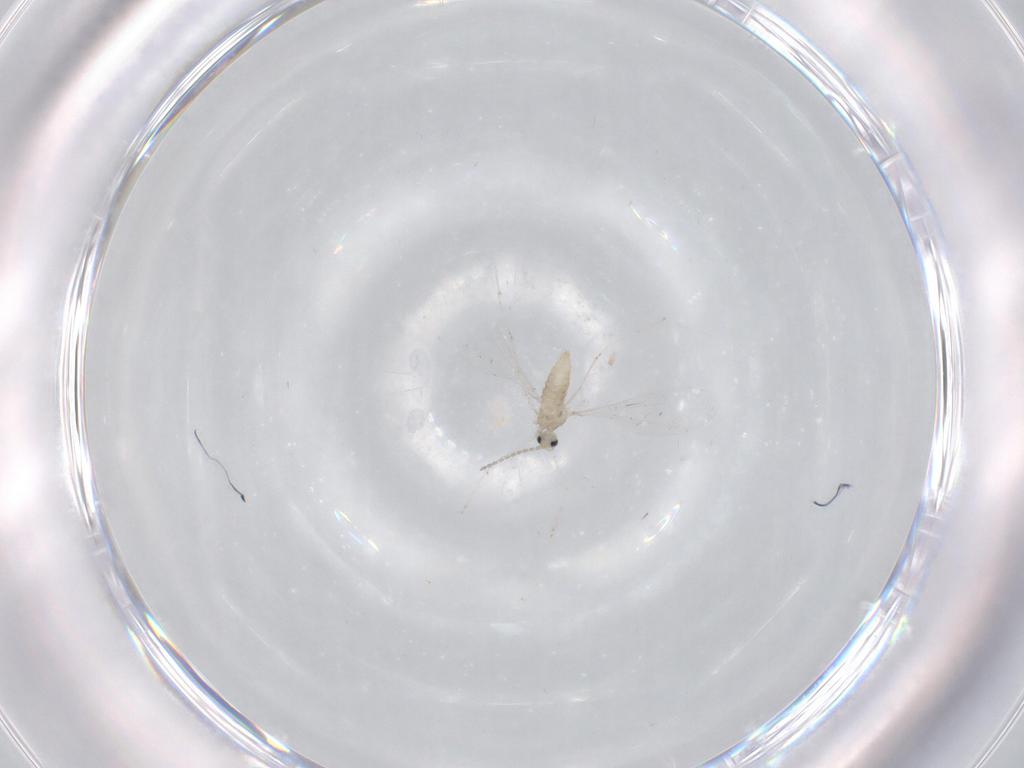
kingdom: Animalia
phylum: Arthropoda
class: Insecta
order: Diptera
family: Cecidomyiidae
